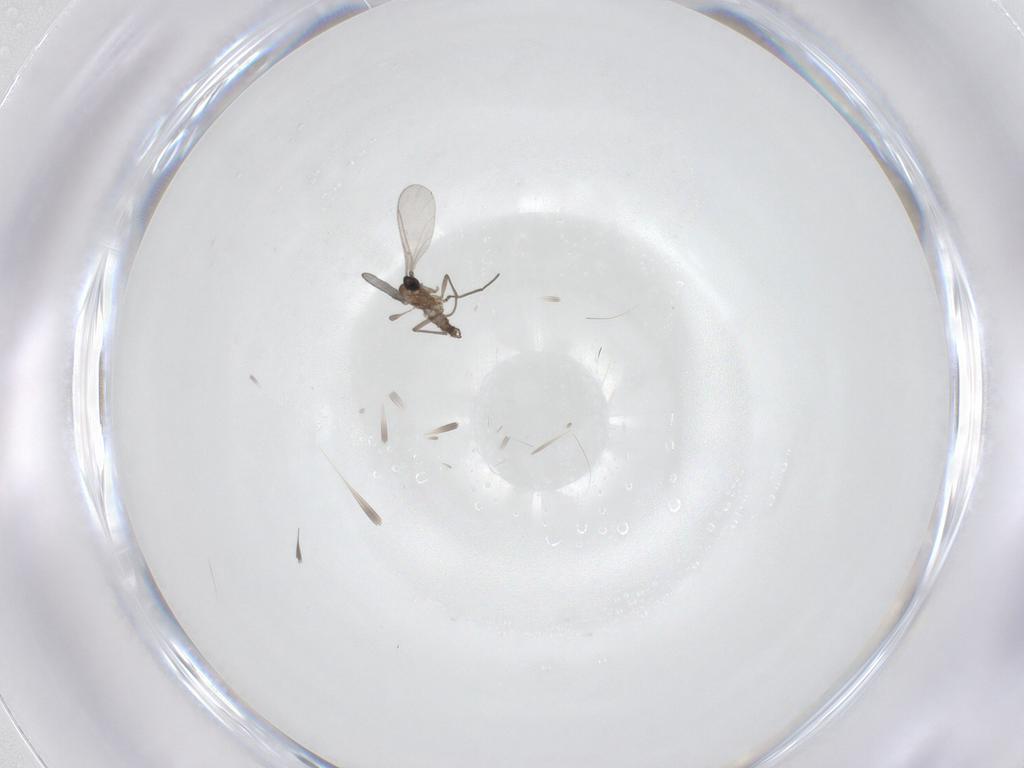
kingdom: Animalia
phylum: Arthropoda
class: Insecta
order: Diptera
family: Sciaridae
